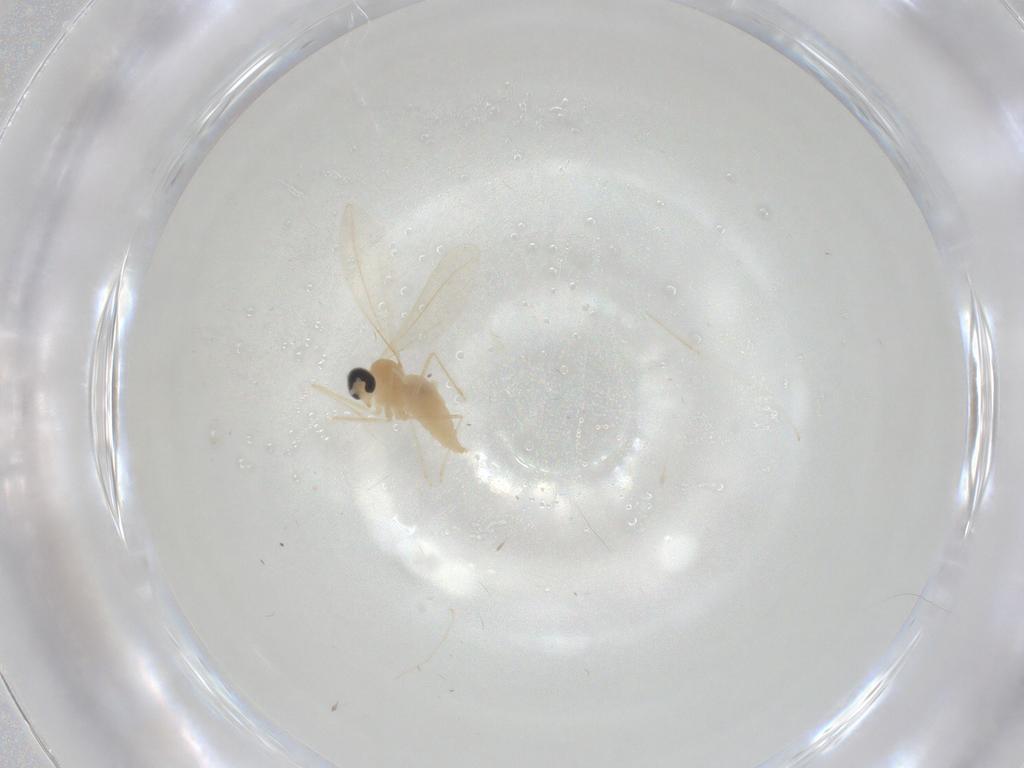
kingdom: Animalia
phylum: Arthropoda
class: Insecta
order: Diptera
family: Cecidomyiidae
